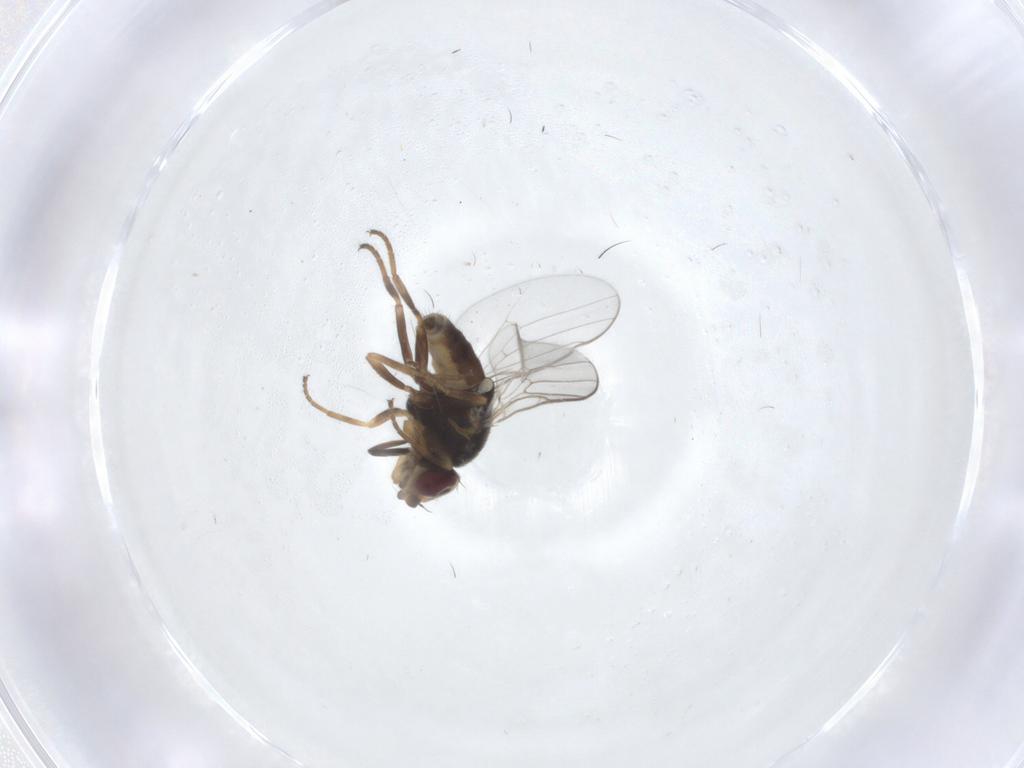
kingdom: Animalia
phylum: Arthropoda
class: Insecta
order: Diptera
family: Chloropidae
